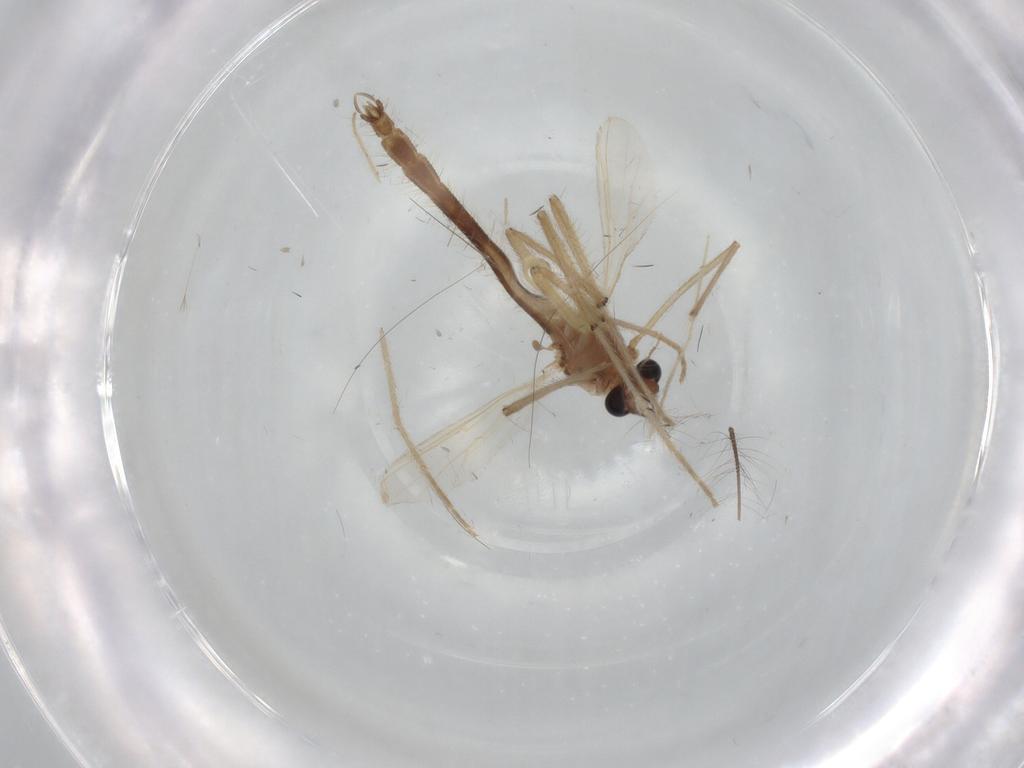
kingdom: Animalia
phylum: Arthropoda
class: Insecta
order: Diptera
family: Chironomidae
